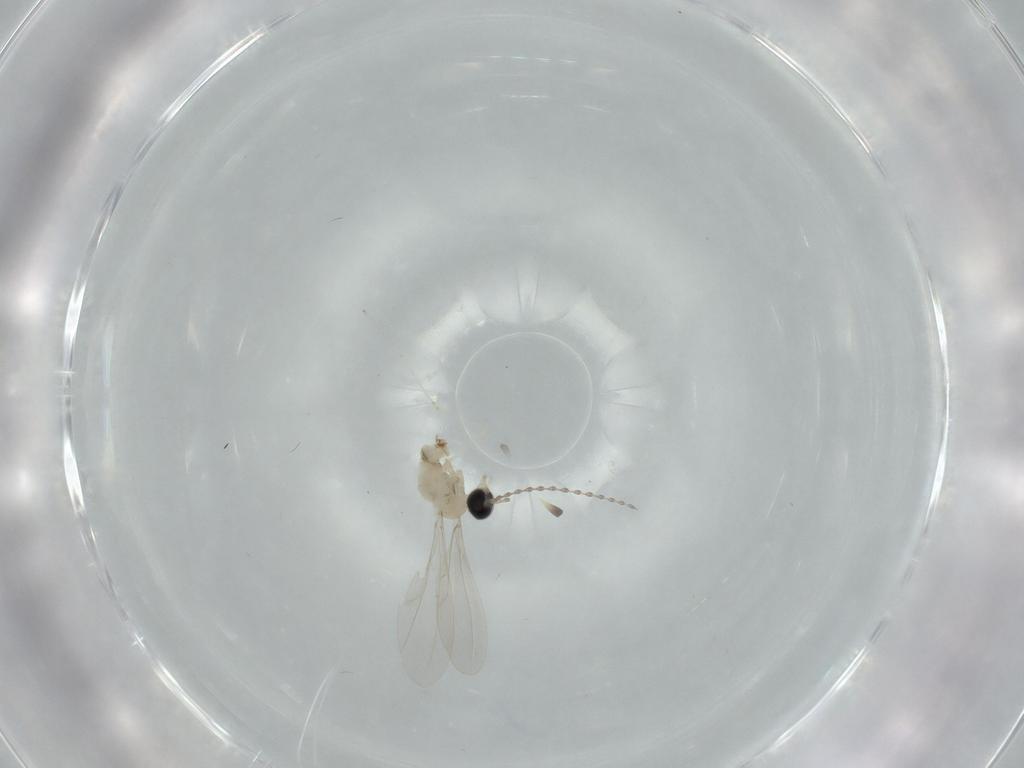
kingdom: Animalia
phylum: Arthropoda
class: Insecta
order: Diptera
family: Cecidomyiidae
